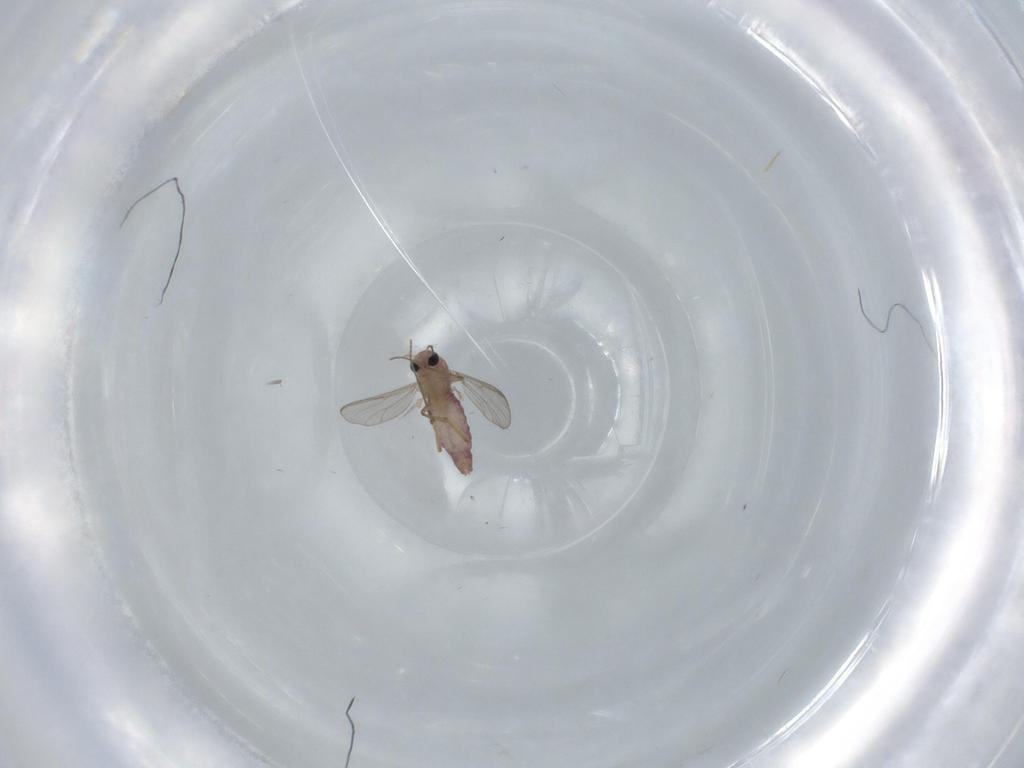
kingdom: Animalia
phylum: Arthropoda
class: Insecta
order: Diptera
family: Chironomidae
